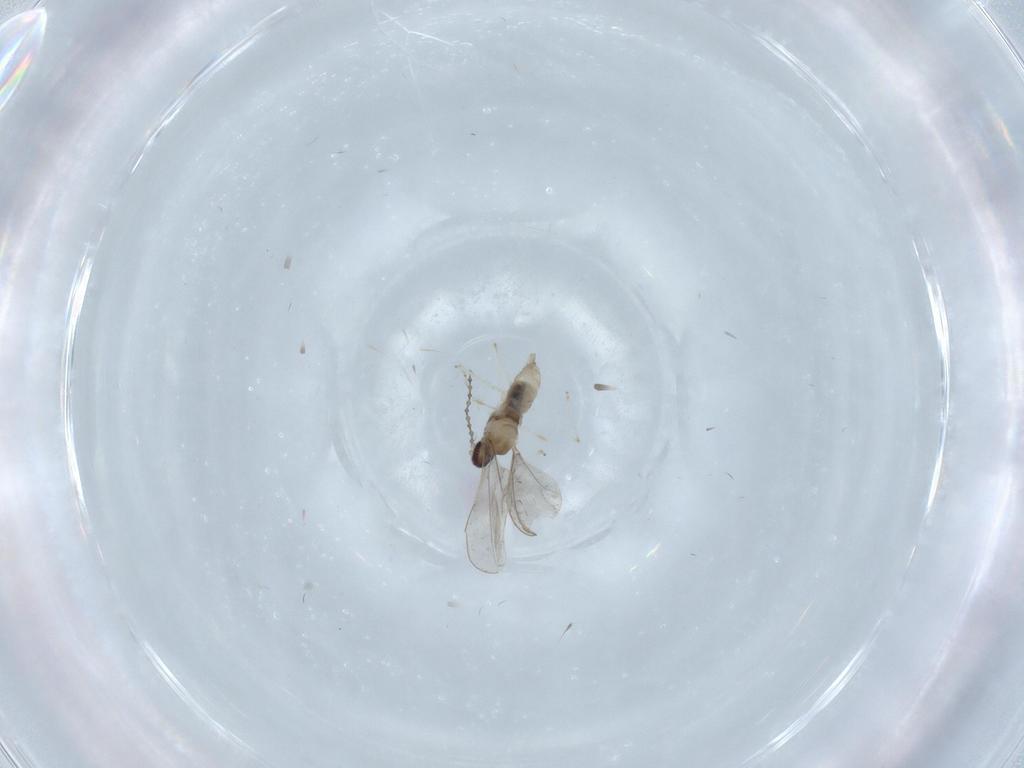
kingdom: Animalia
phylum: Arthropoda
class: Insecta
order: Diptera
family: Cecidomyiidae
